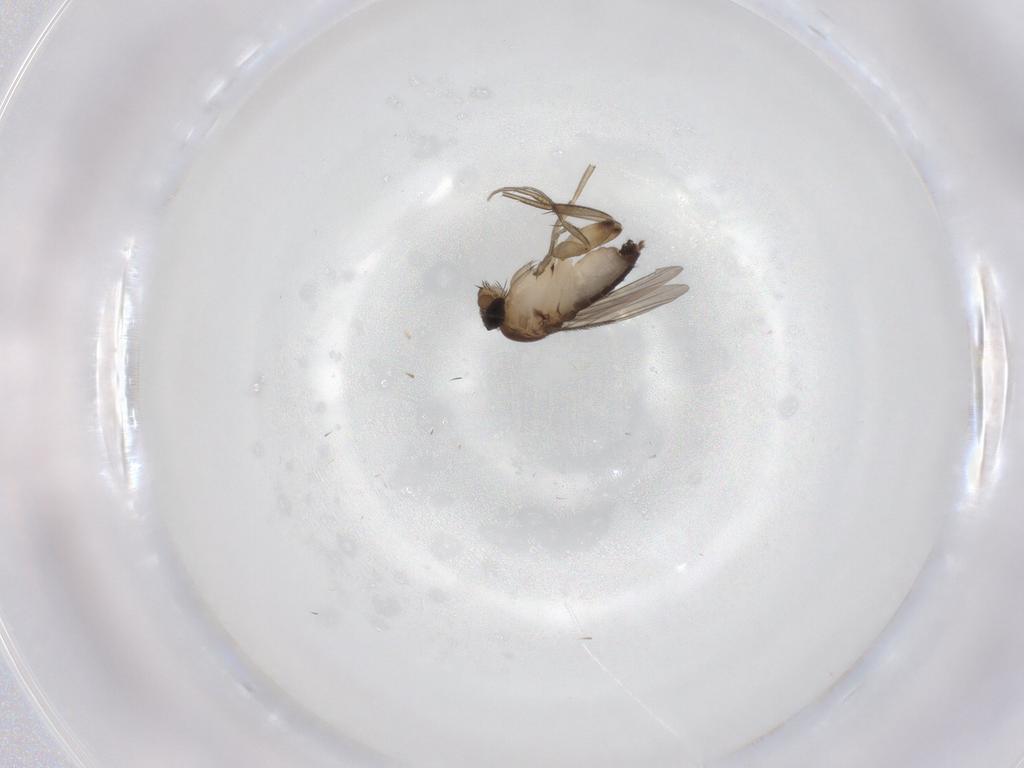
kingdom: Animalia
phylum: Arthropoda
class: Insecta
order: Diptera
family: Phoridae
